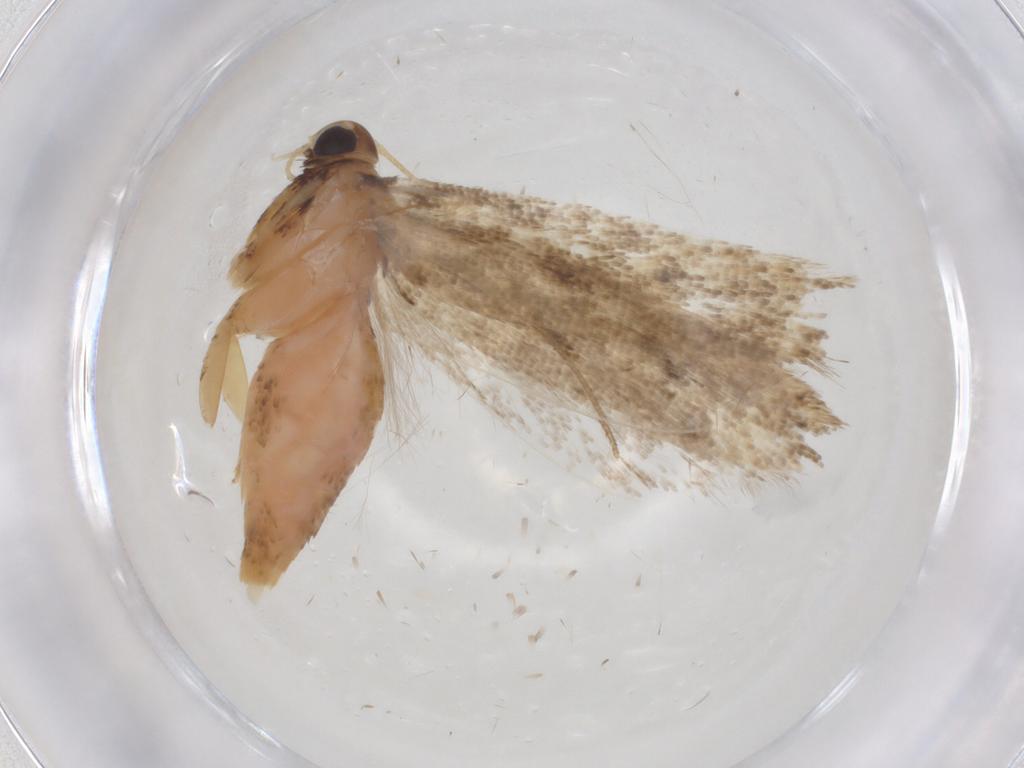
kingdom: Animalia
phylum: Arthropoda
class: Insecta
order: Lepidoptera
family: Gelechiidae
